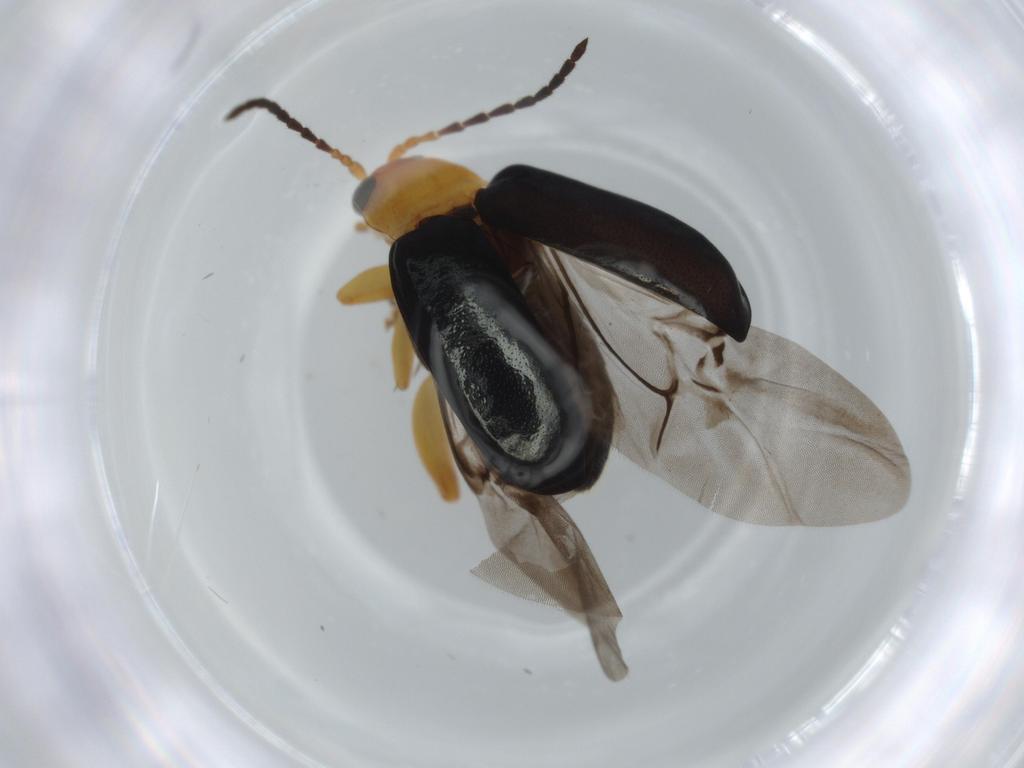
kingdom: Animalia
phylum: Arthropoda
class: Insecta
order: Coleoptera
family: Chrysomelidae
